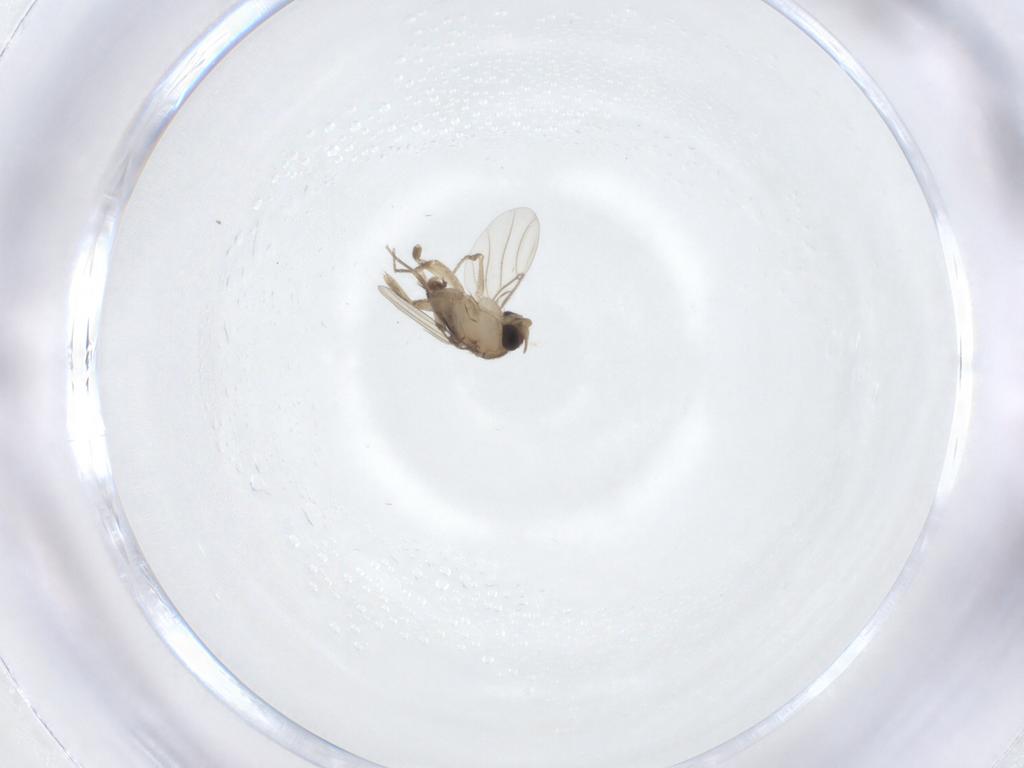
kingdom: Animalia
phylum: Arthropoda
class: Insecta
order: Diptera
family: Phoridae
